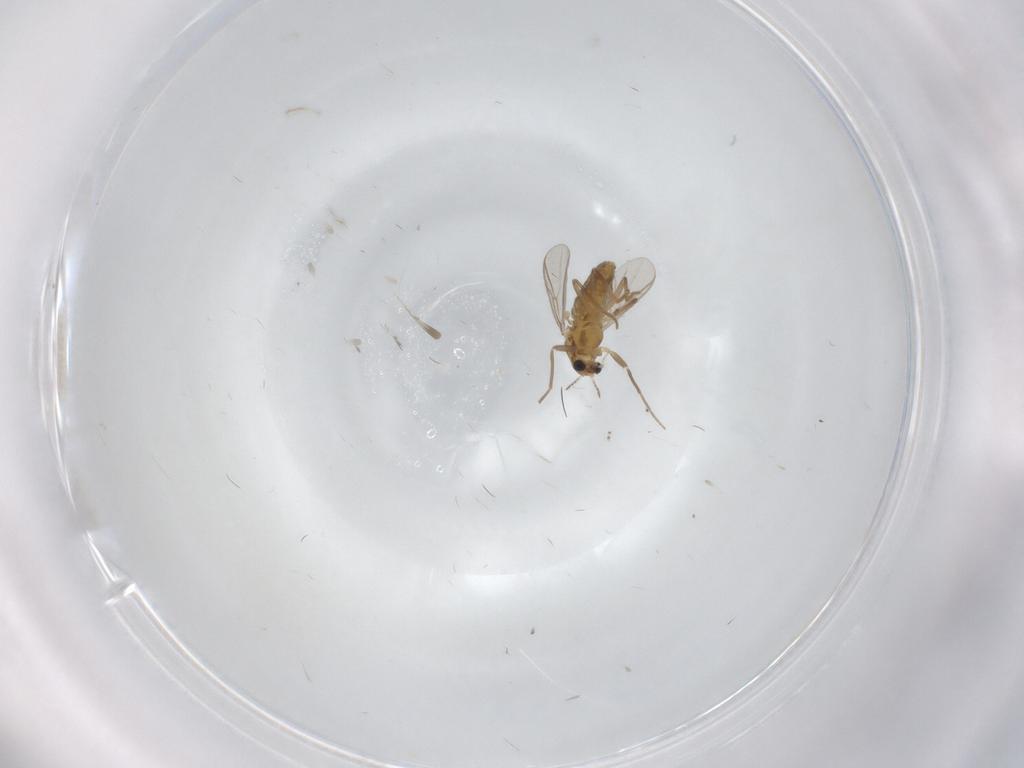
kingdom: Animalia
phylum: Arthropoda
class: Insecta
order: Diptera
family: Chironomidae
